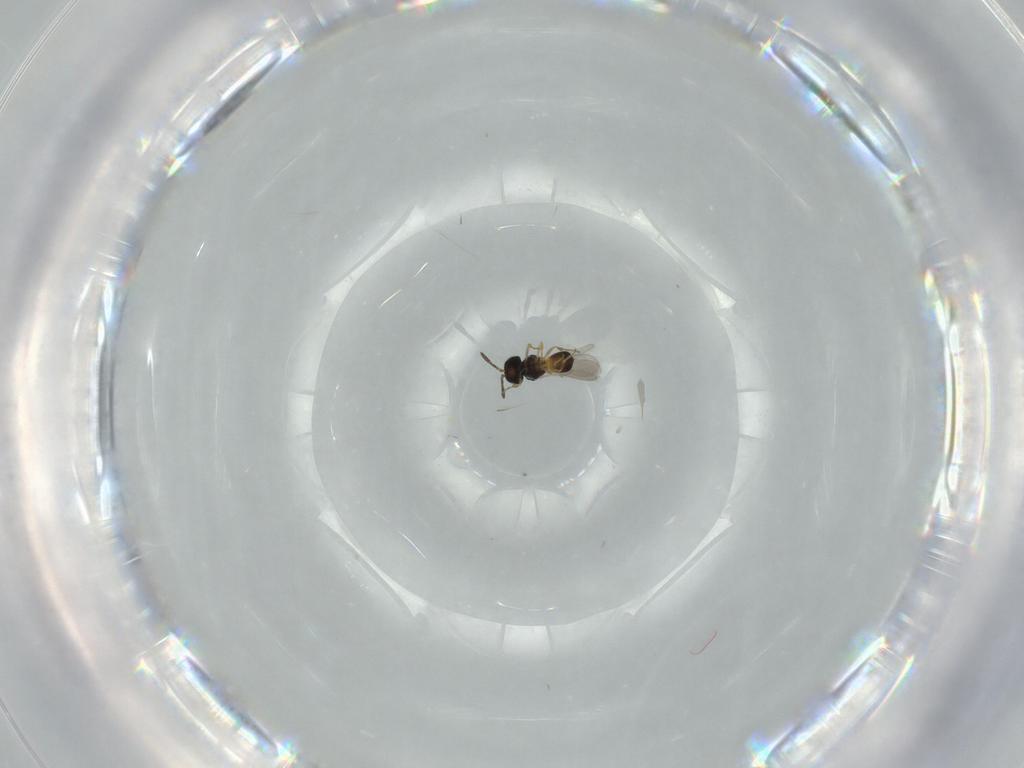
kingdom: Animalia
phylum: Arthropoda
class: Insecta
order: Hymenoptera
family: Scelionidae
